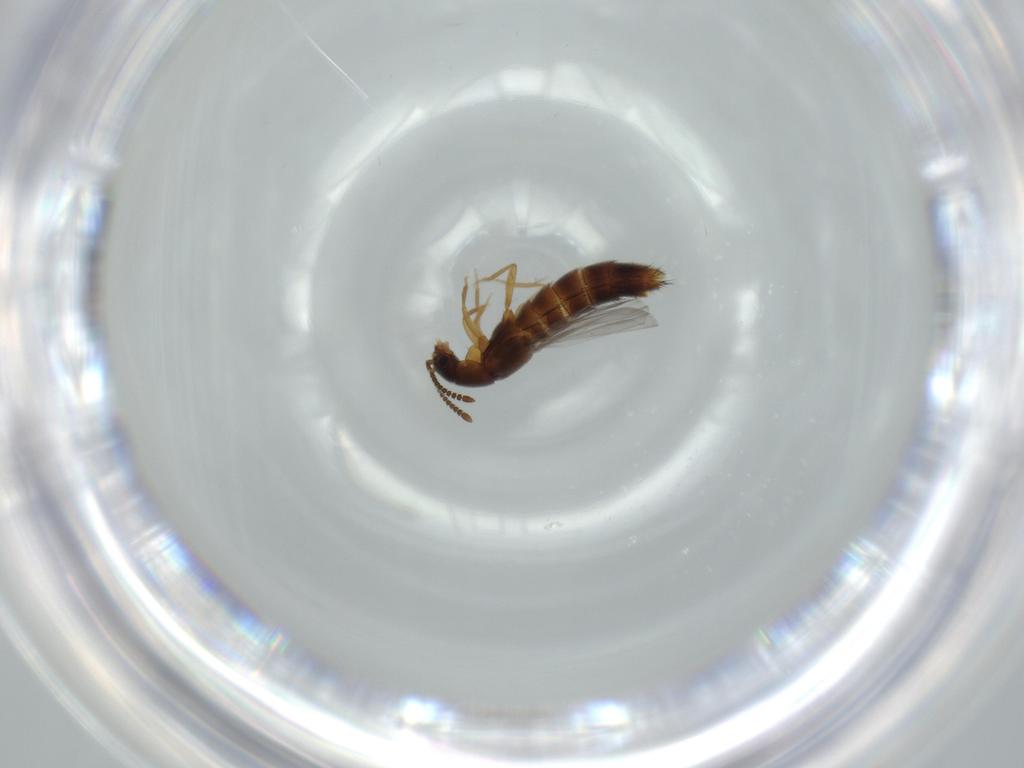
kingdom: Animalia
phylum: Arthropoda
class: Insecta
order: Coleoptera
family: Staphylinidae
